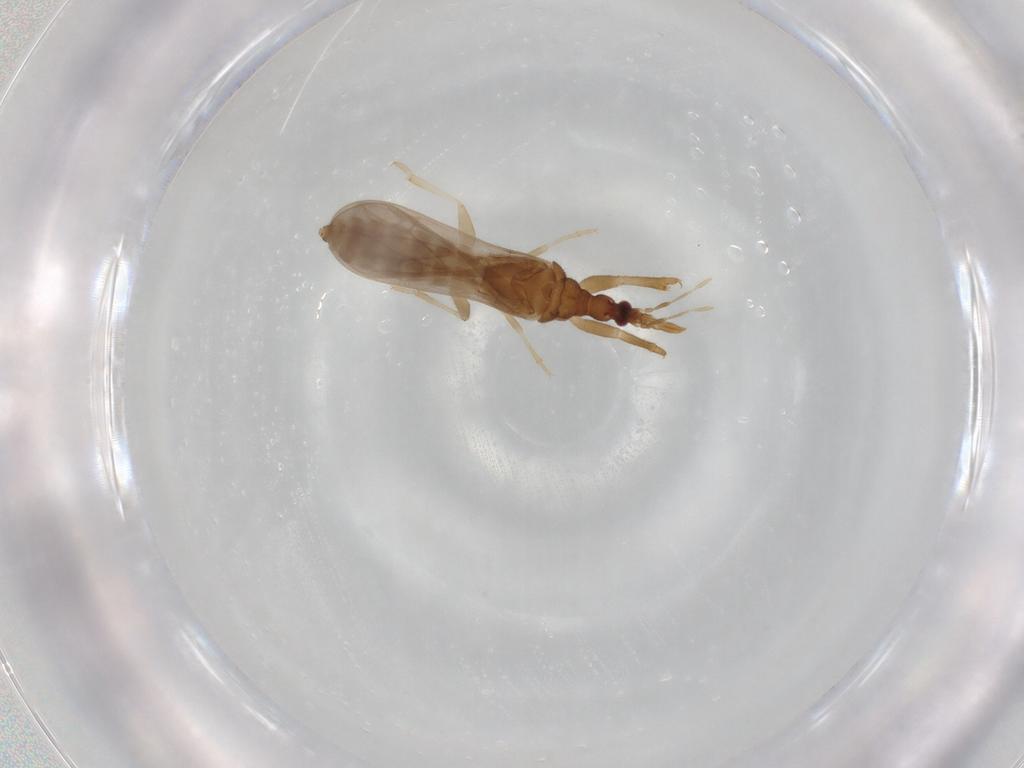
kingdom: Animalia
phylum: Arthropoda
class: Insecta
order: Hemiptera
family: Enicocephalidae
